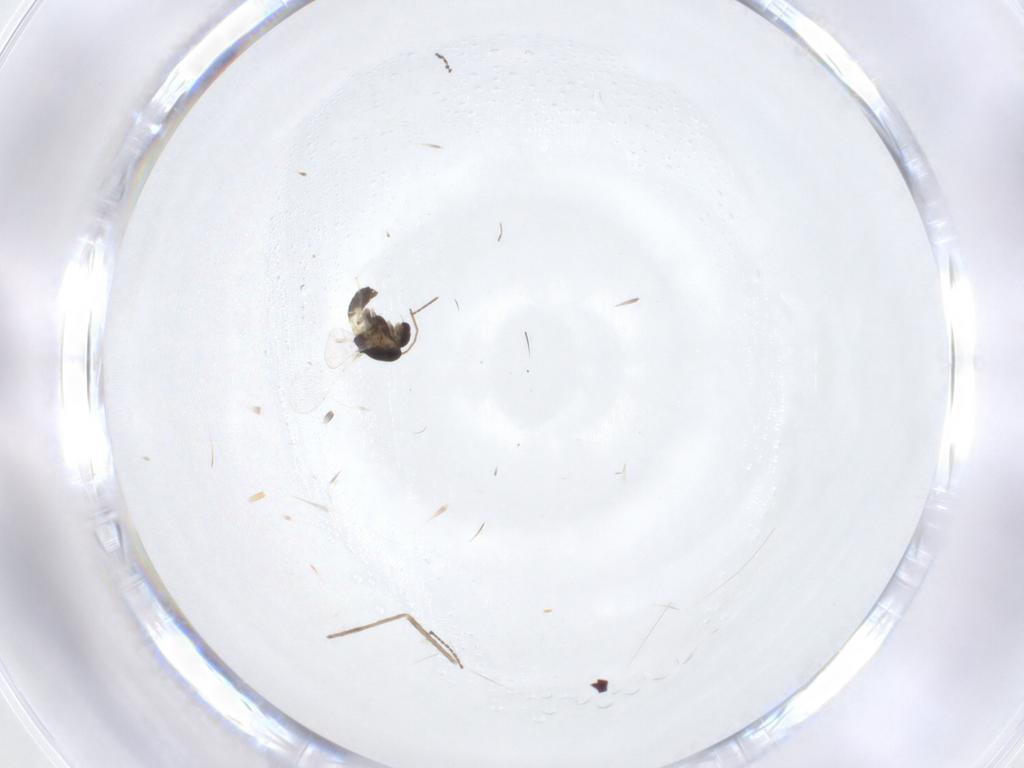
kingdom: Animalia
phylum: Arthropoda
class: Insecta
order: Diptera
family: Chironomidae
